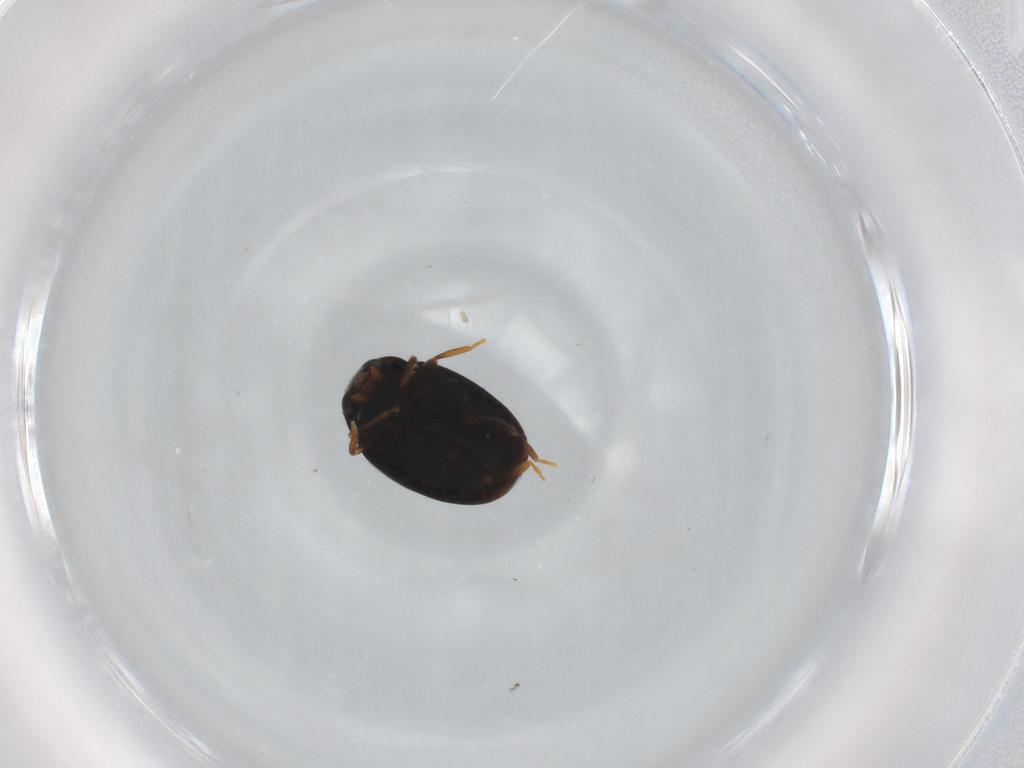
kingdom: Animalia
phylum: Arthropoda
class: Insecta
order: Coleoptera
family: Coccinellidae
